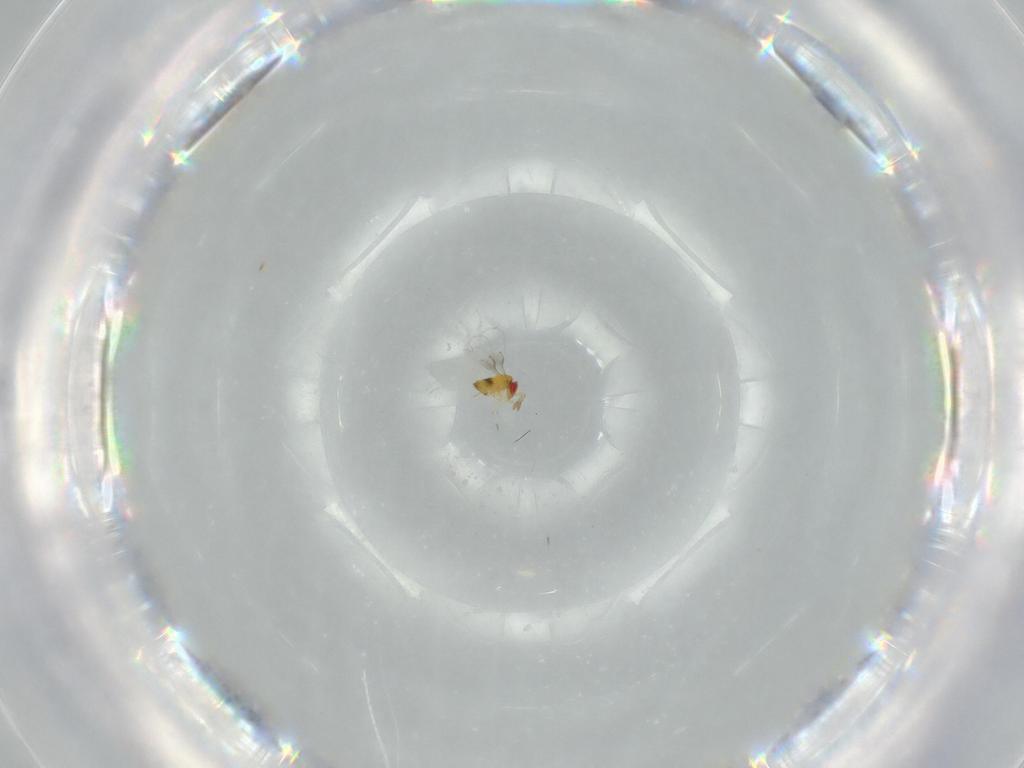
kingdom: Animalia
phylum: Arthropoda
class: Insecta
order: Hymenoptera
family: Trichogrammatidae
